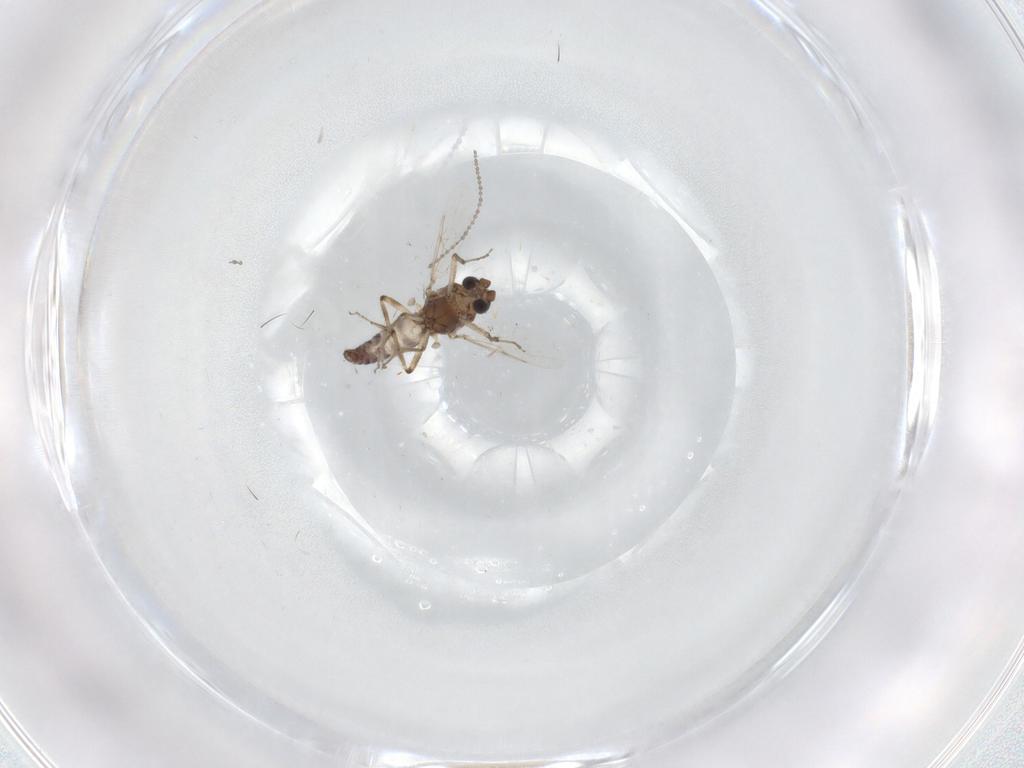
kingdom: Animalia
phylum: Arthropoda
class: Insecta
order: Diptera
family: Ceratopogonidae
